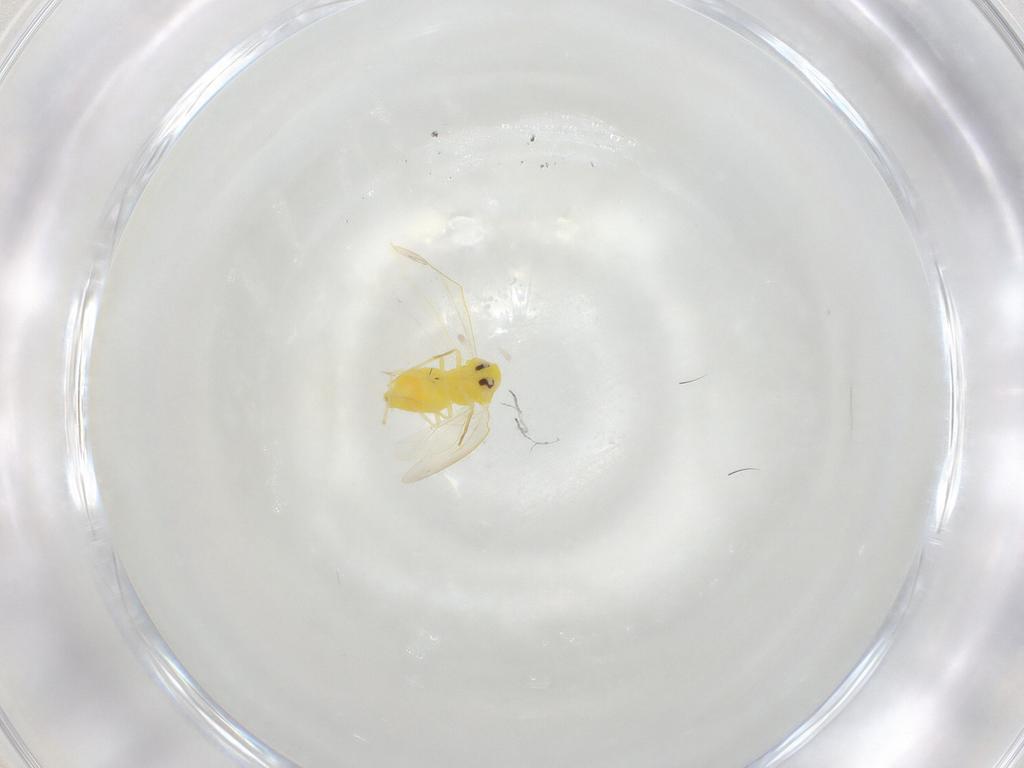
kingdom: Animalia
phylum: Arthropoda
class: Insecta
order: Hemiptera
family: Aleyrodidae
